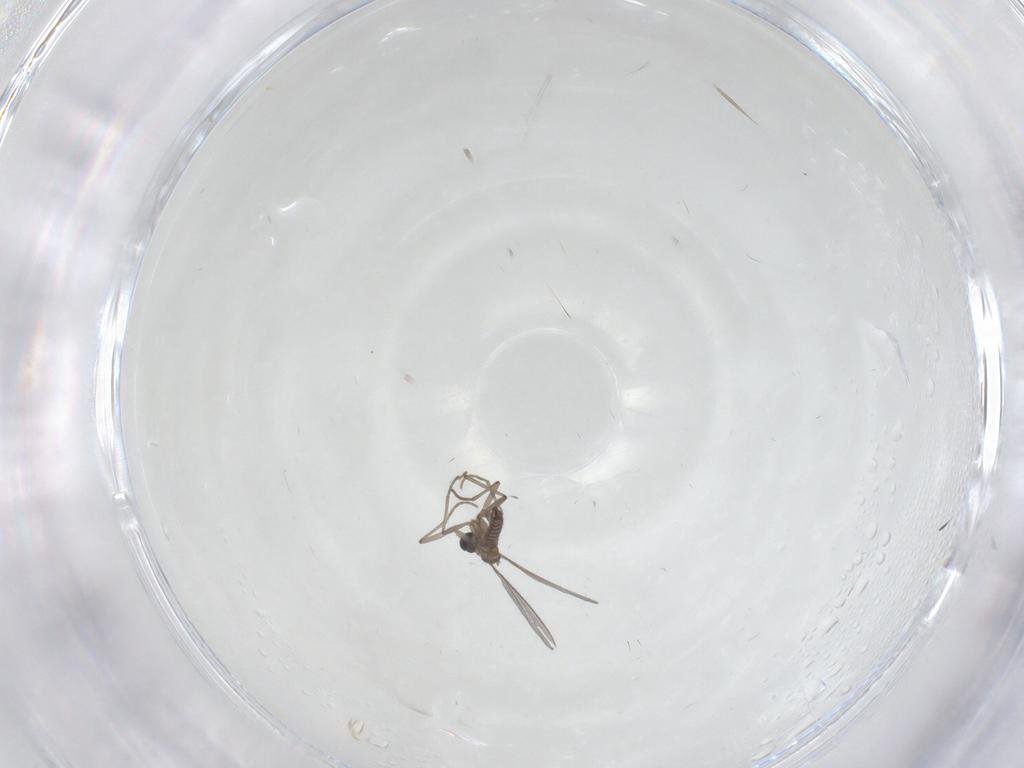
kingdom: Animalia
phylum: Arthropoda
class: Insecta
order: Diptera
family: Sciaridae
